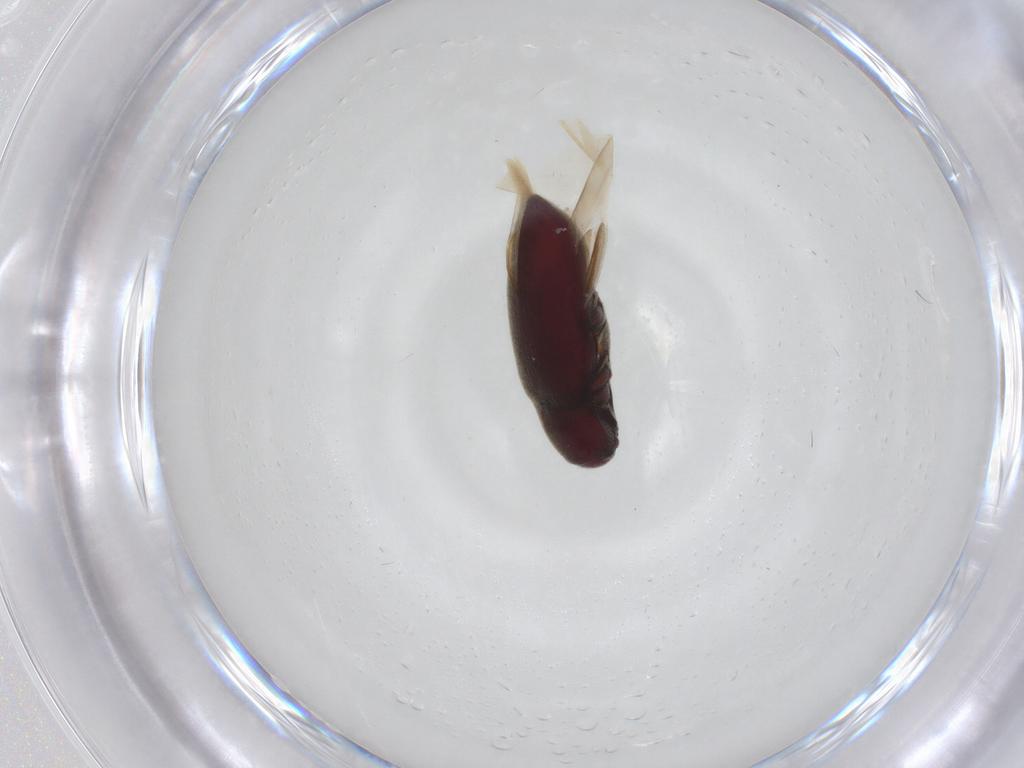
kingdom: Animalia
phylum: Arthropoda
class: Insecta
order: Coleoptera
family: Throscidae
